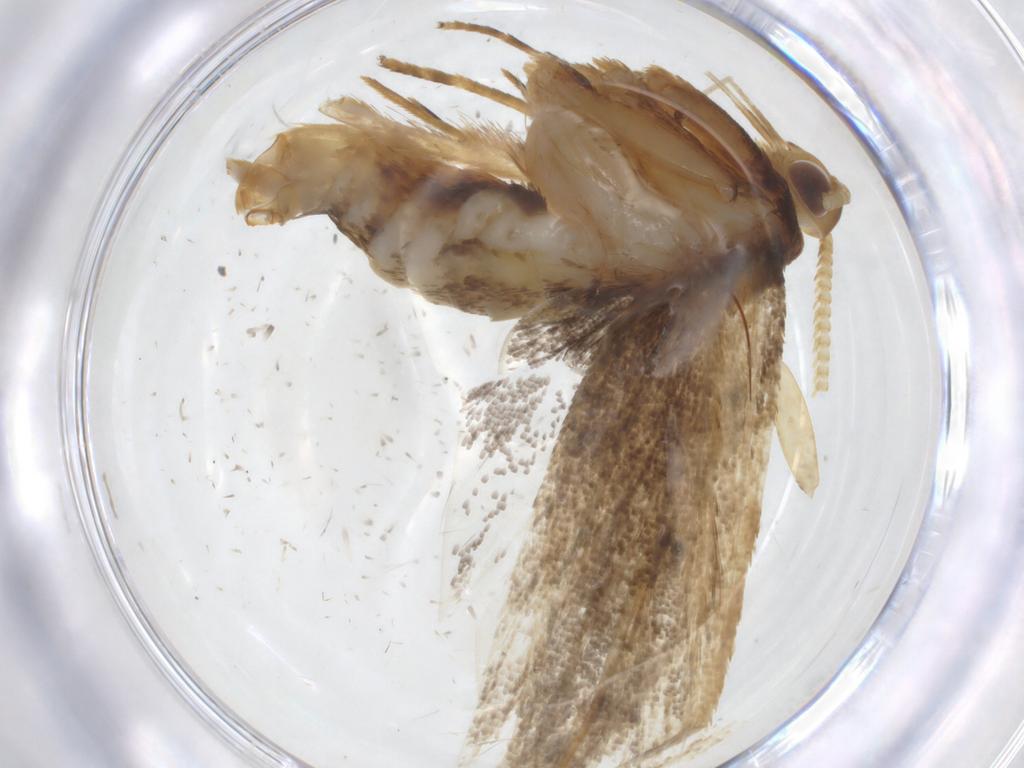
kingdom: Animalia
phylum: Arthropoda
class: Insecta
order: Lepidoptera
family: Lecithoceridae
